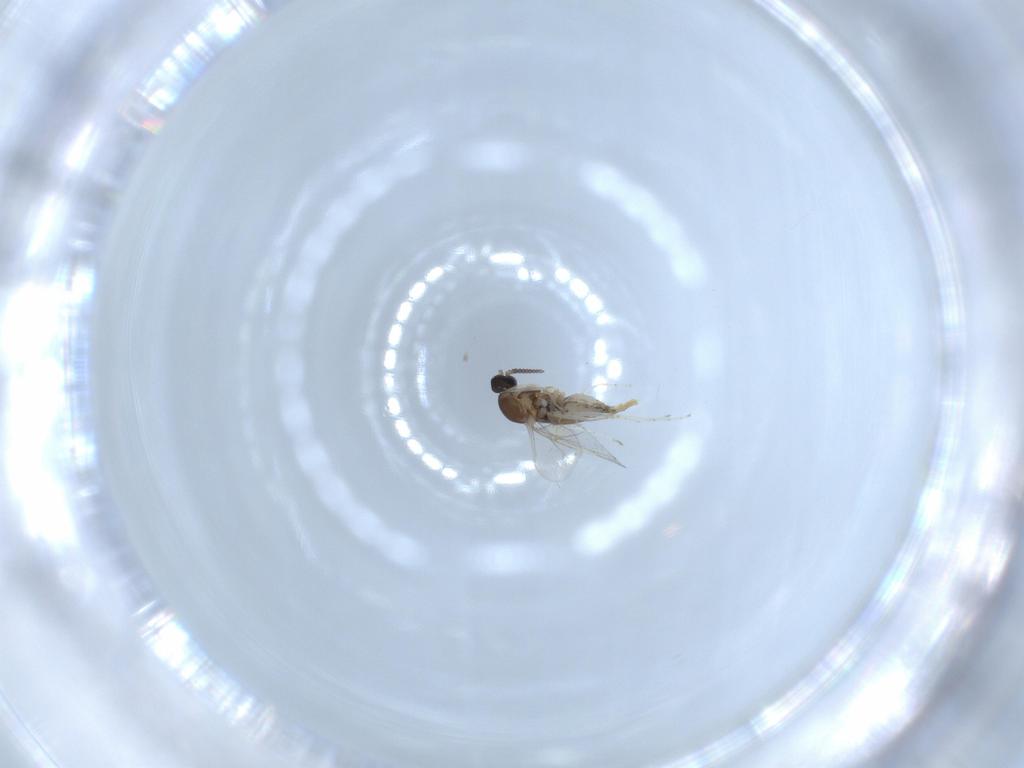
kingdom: Animalia
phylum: Arthropoda
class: Insecta
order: Diptera
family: Cecidomyiidae
